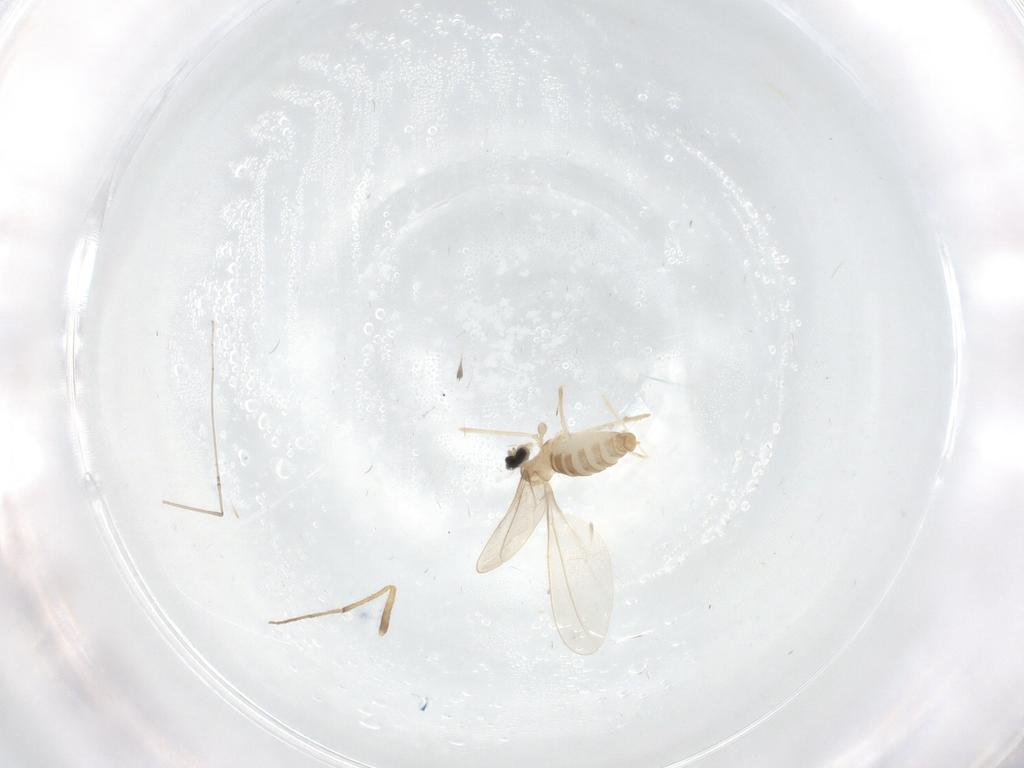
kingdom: Animalia
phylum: Arthropoda
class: Insecta
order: Diptera
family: Cecidomyiidae
